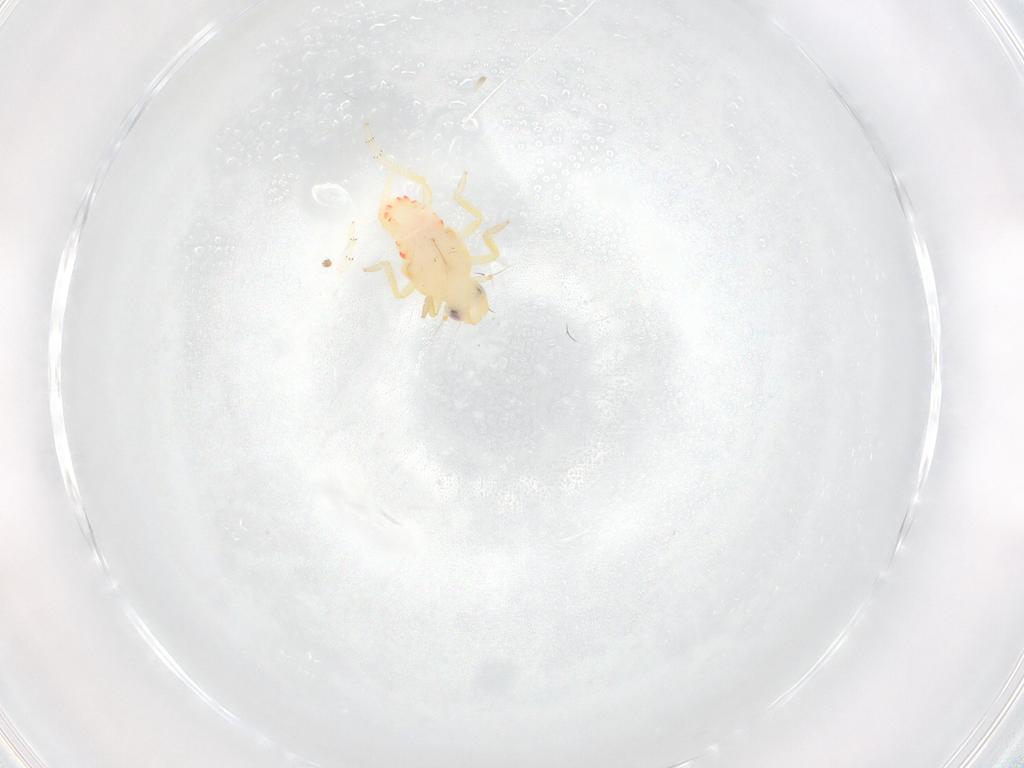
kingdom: Animalia
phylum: Arthropoda
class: Insecta
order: Hemiptera
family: Tropiduchidae
